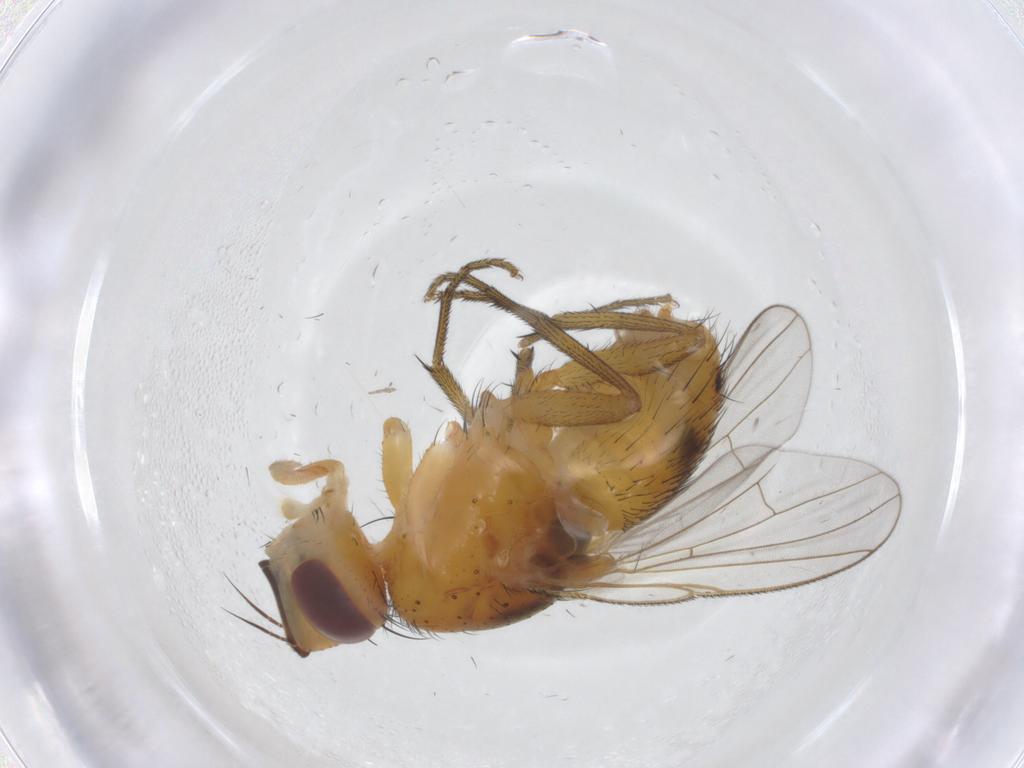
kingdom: Animalia
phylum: Arthropoda
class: Insecta
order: Diptera
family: Muscidae
